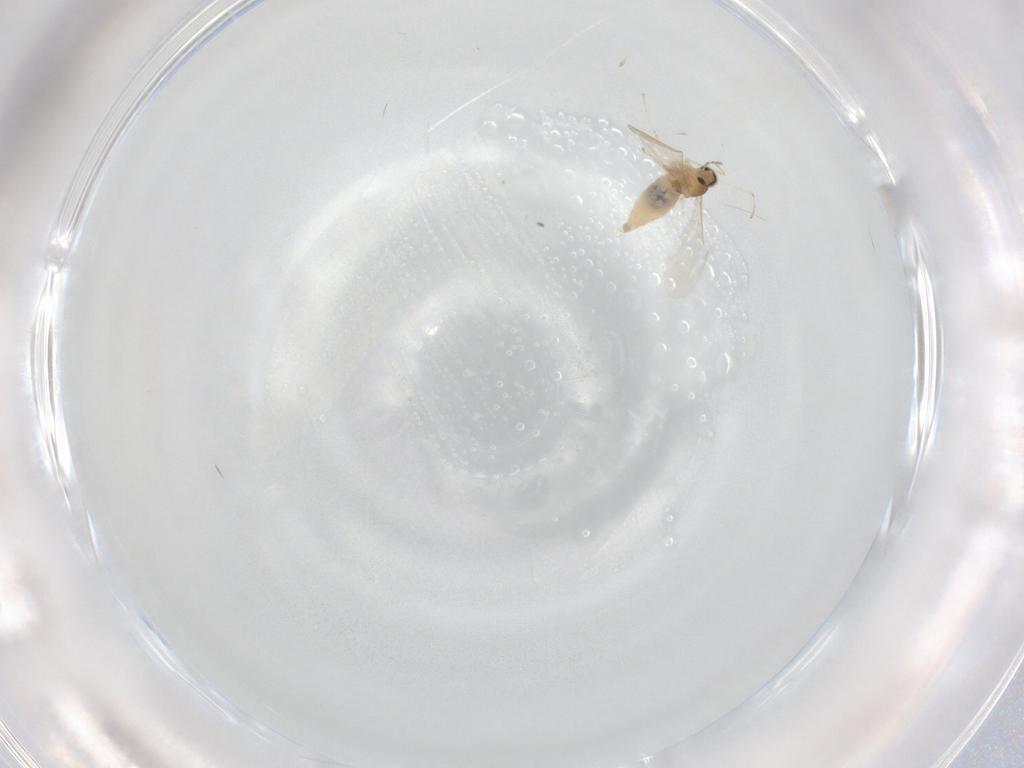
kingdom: Animalia
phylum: Arthropoda
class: Insecta
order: Diptera
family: Cecidomyiidae
